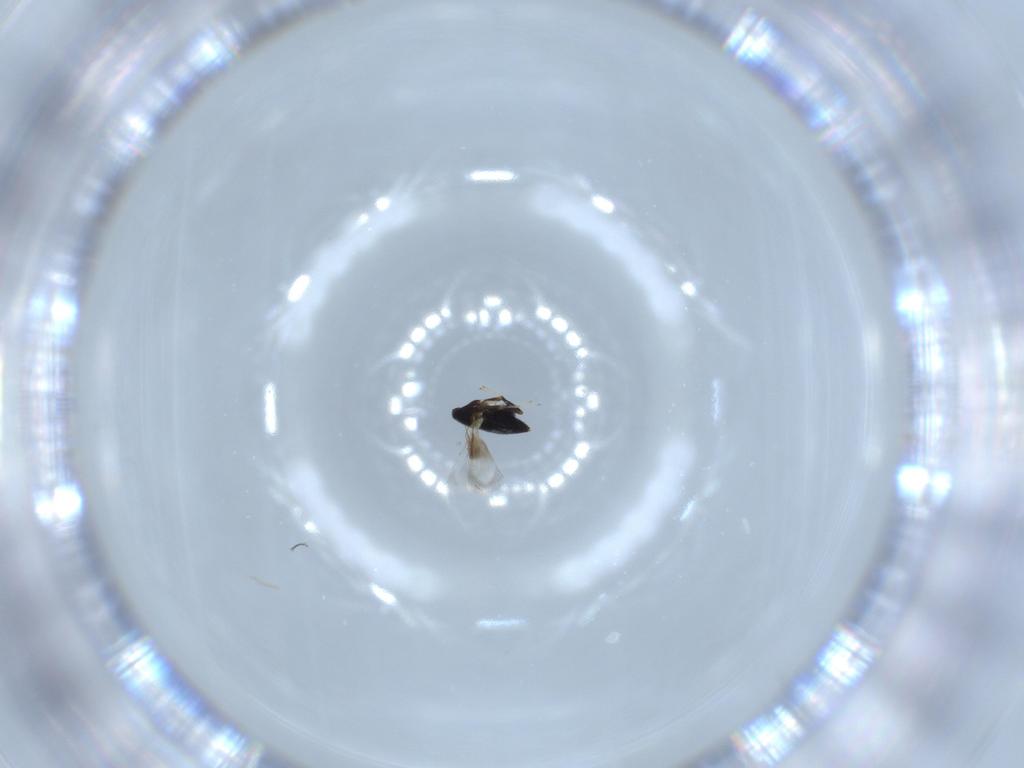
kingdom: Animalia
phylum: Arthropoda
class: Insecta
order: Hymenoptera
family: Signiphoridae
